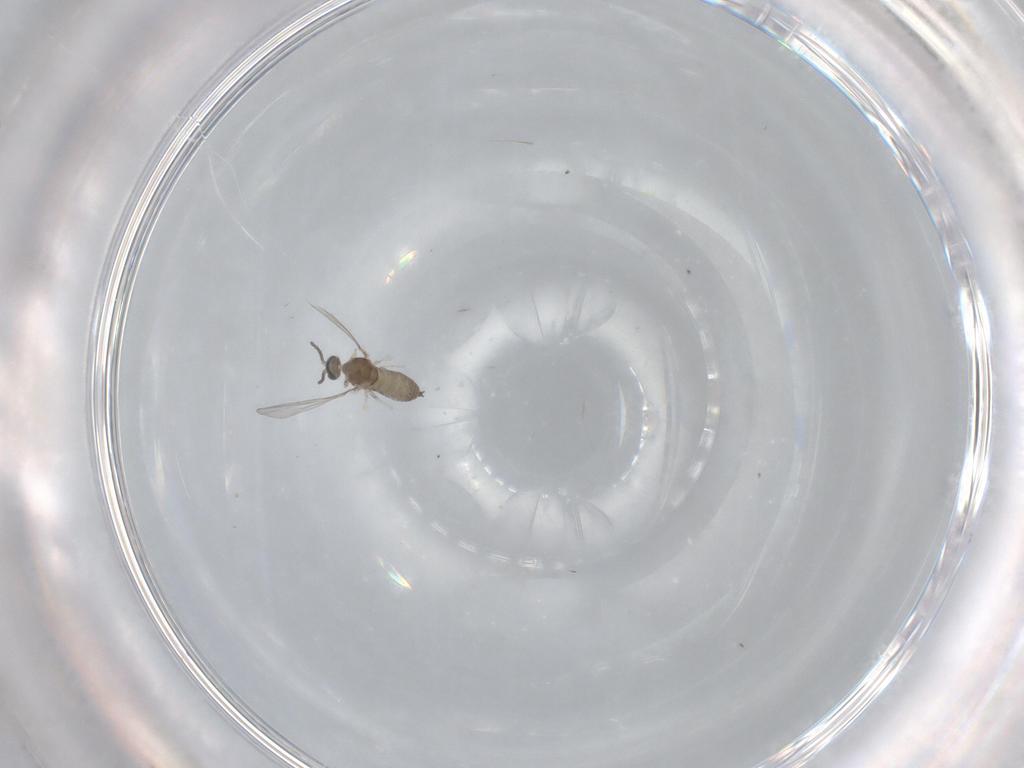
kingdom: Animalia
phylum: Arthropoda
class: Insecta
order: Diptera
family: Cecidomyiidae
